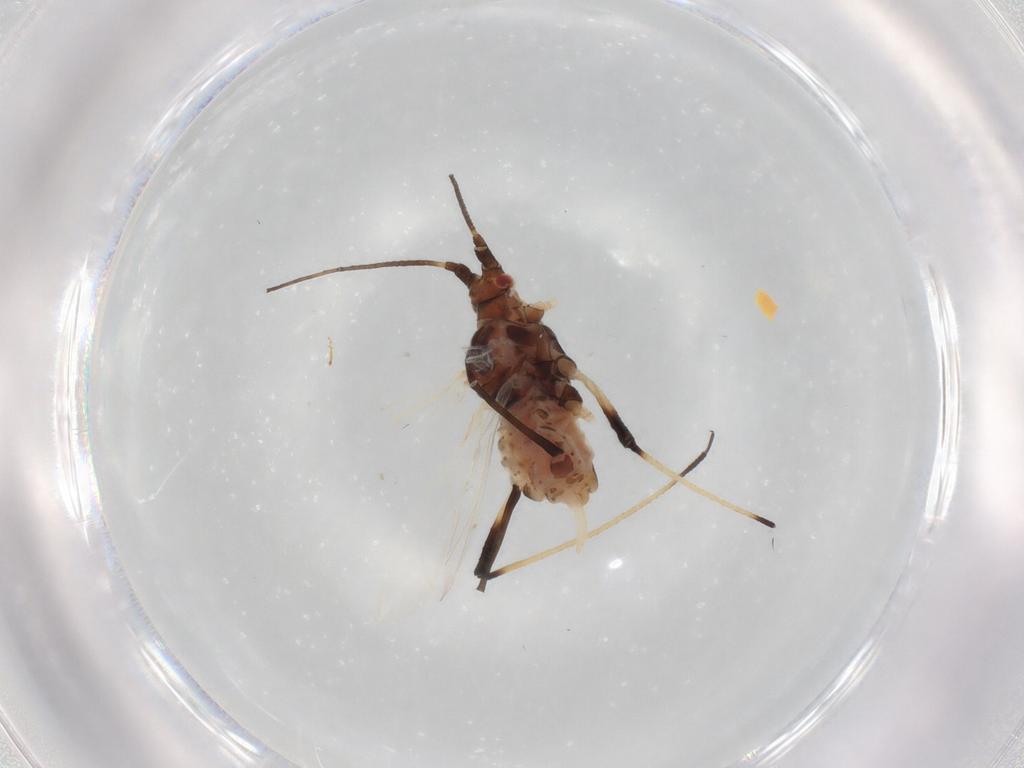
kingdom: Animalia
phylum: Arthropoda
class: Insecta
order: Hemiptera
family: Aphididae
